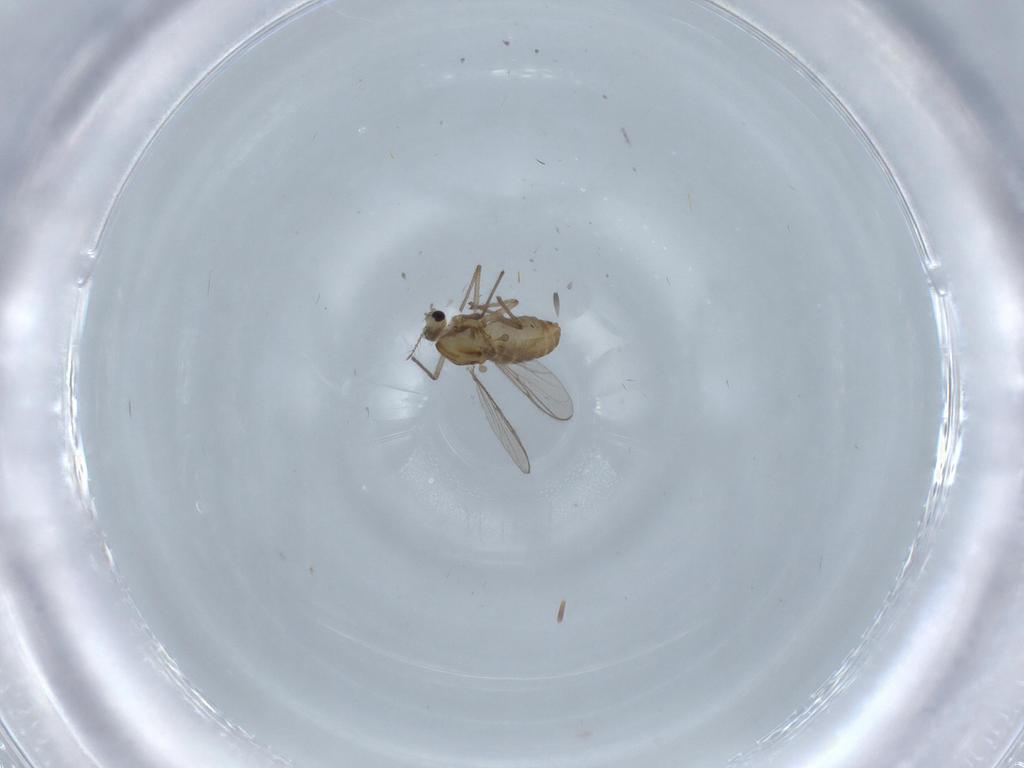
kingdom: Animalia
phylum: Arthropoda
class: Insecta
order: Diptera
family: Chironomidae
